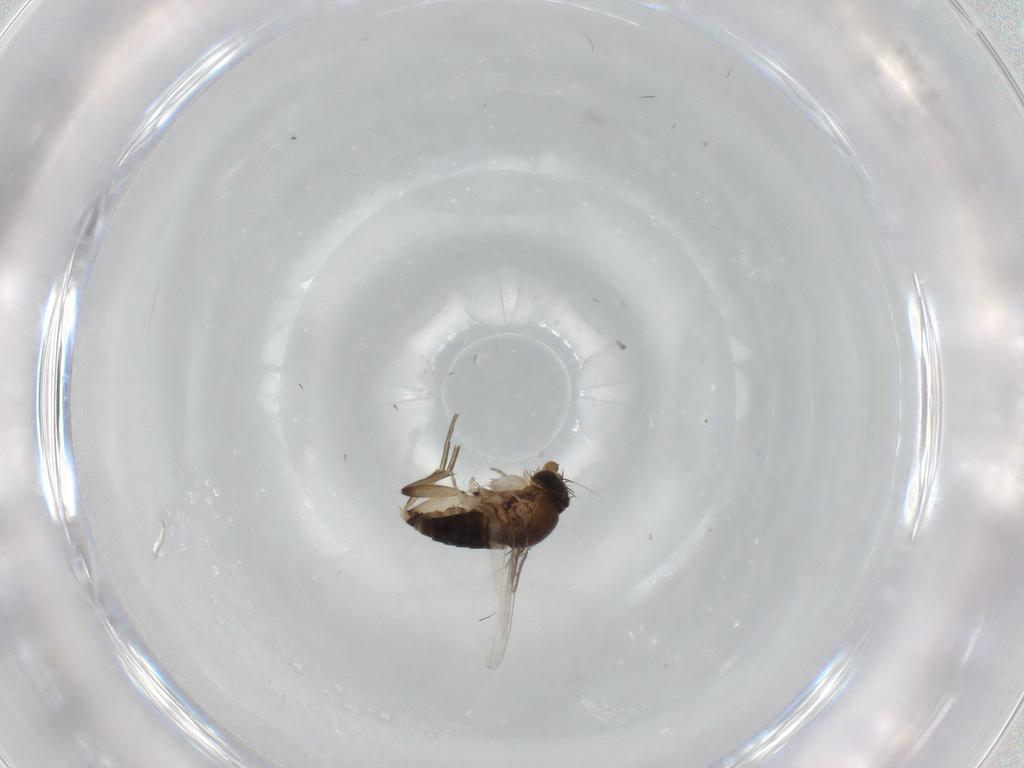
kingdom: Animalia
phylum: Arthropoda
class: Insecta
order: Diptera
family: Phoridae
